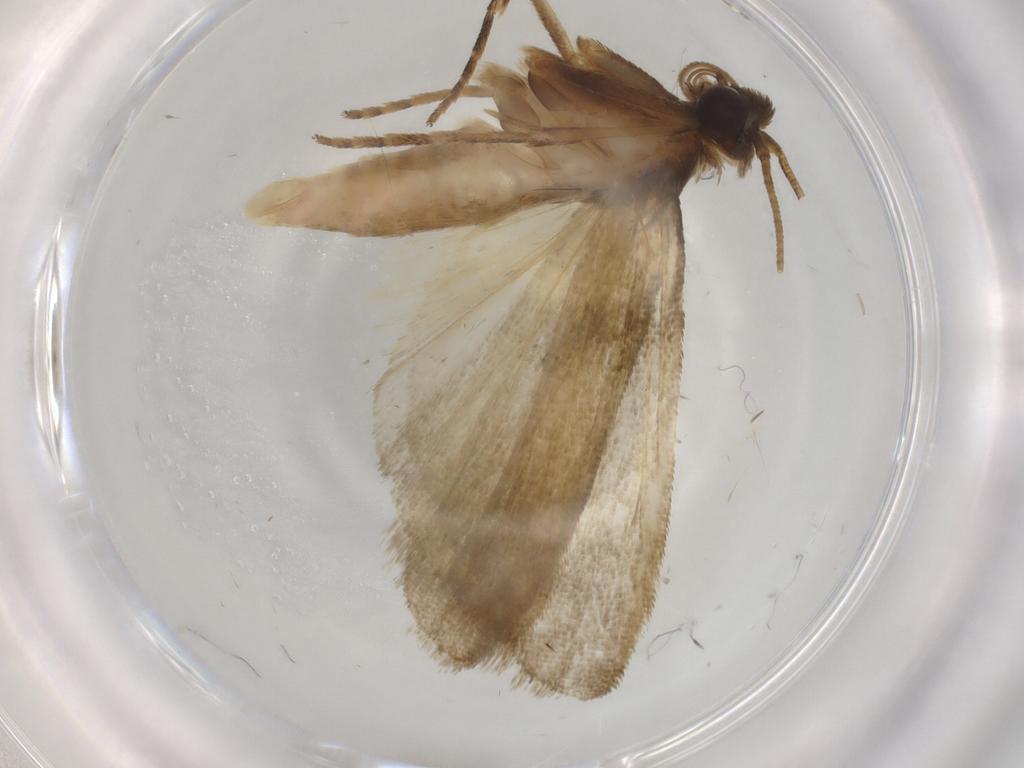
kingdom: Animalia
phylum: Arthropoda
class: Insecta
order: Lepidoptera
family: Noctuidae
